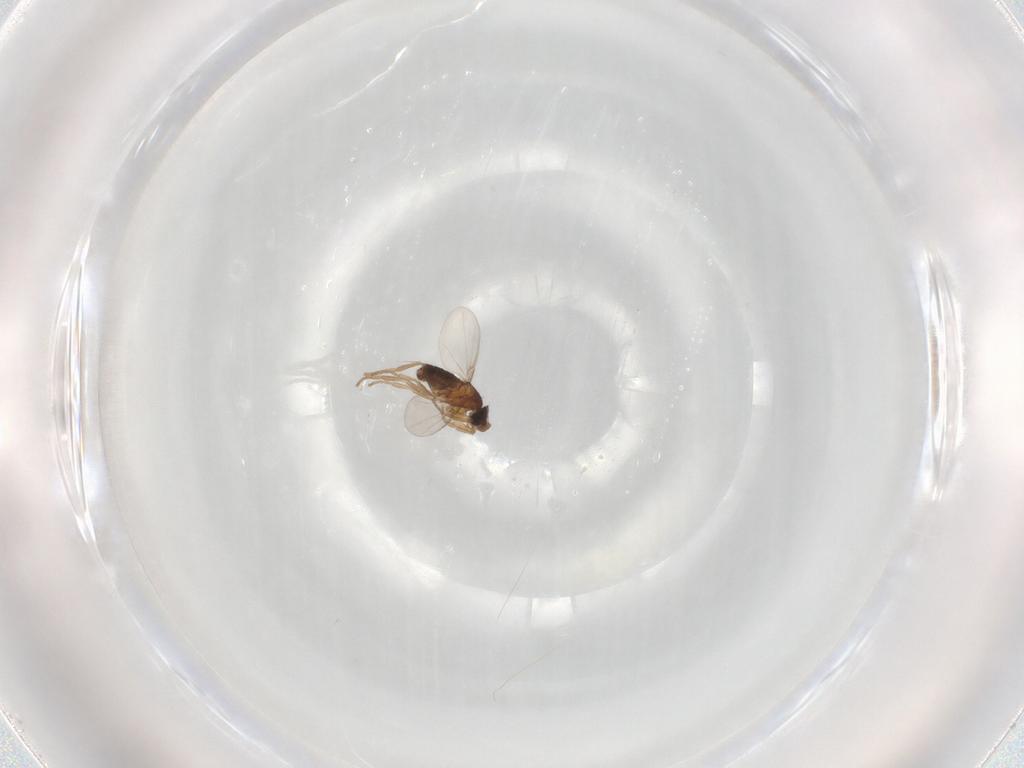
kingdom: Animalia
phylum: Arthropoda
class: Insecta
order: Diptera
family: Phoridae
